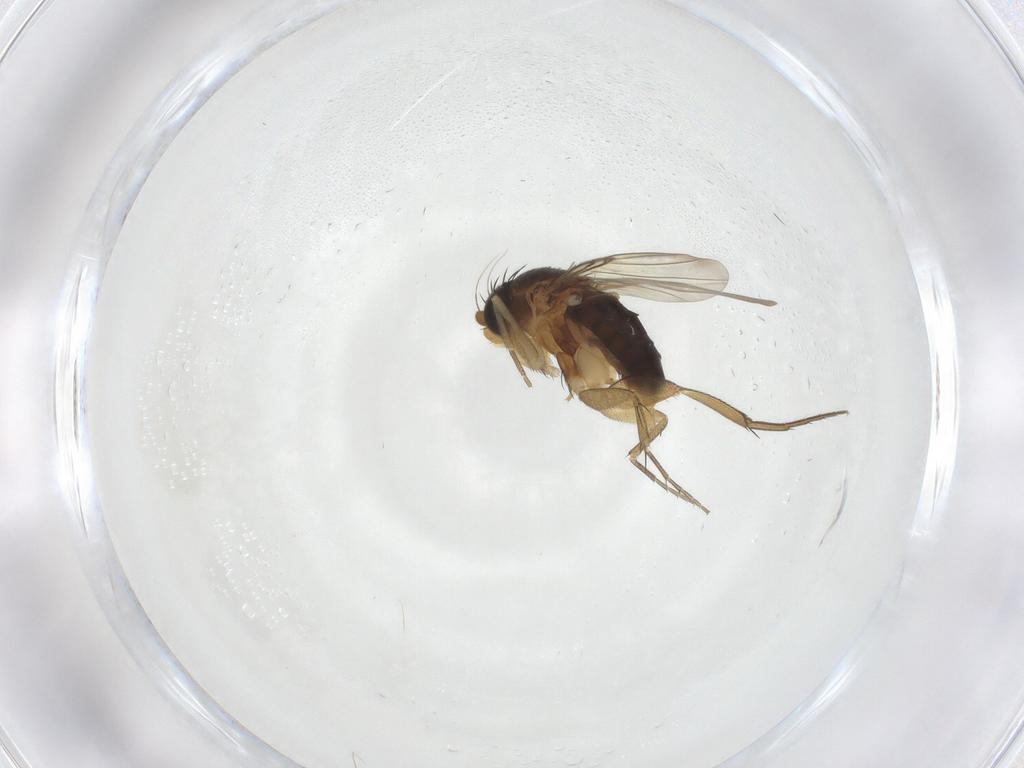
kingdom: Animalia
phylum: Arthropoda
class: Insecta
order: Diptera
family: Phoridae
